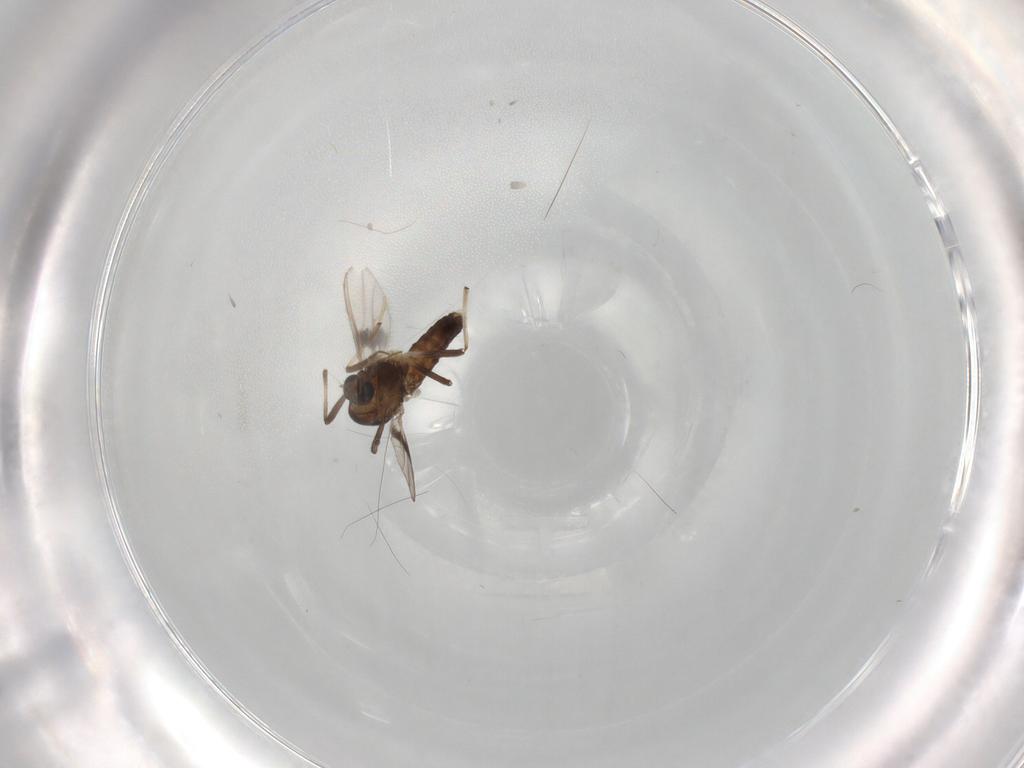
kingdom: Animalia
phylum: Arthropoda
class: Insecta
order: Diptera
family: Chironomidae
